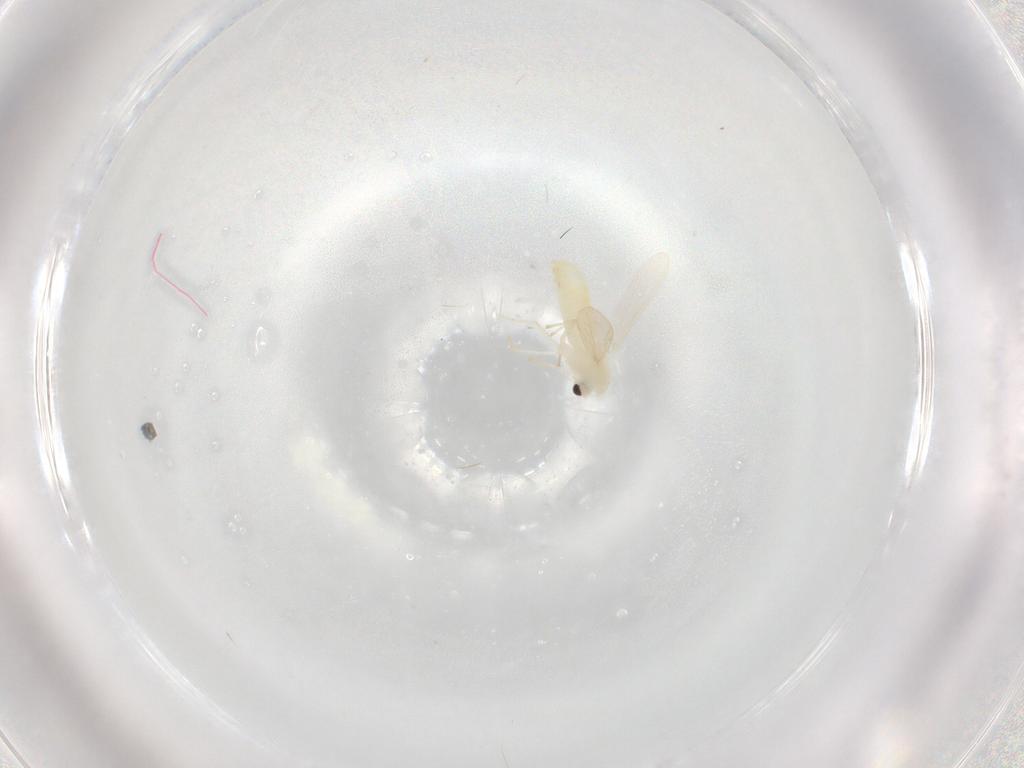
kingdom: Animalia
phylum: Arthropoda
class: Insecta
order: Diptera
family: Chironomidae
